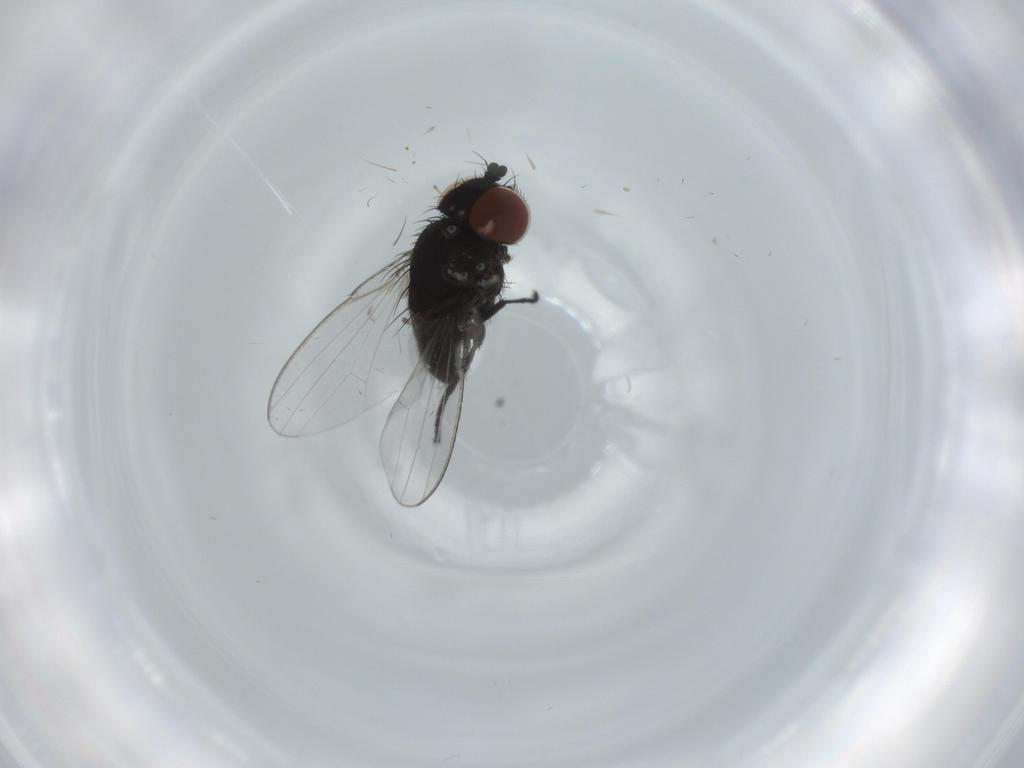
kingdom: Animalia
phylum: Arthropoda
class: Insecta
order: Diptera
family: Milichiidae
